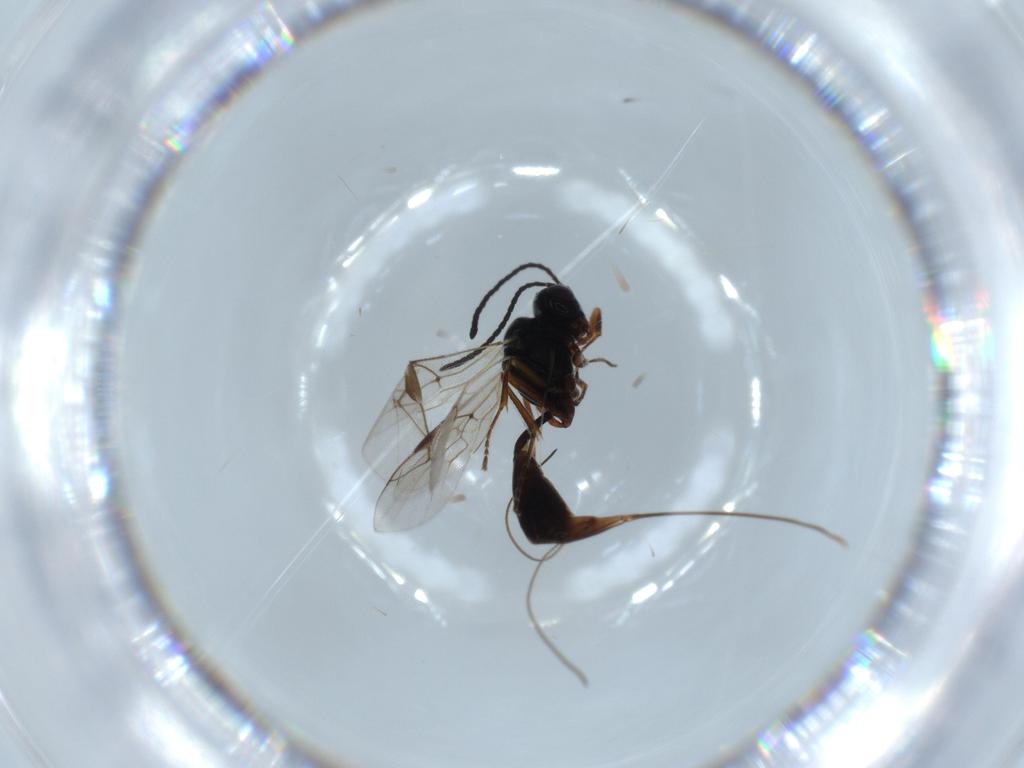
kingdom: Animalia
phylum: Arthropoda
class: Insecta
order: Hymenoptera
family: Ichneumonidae
